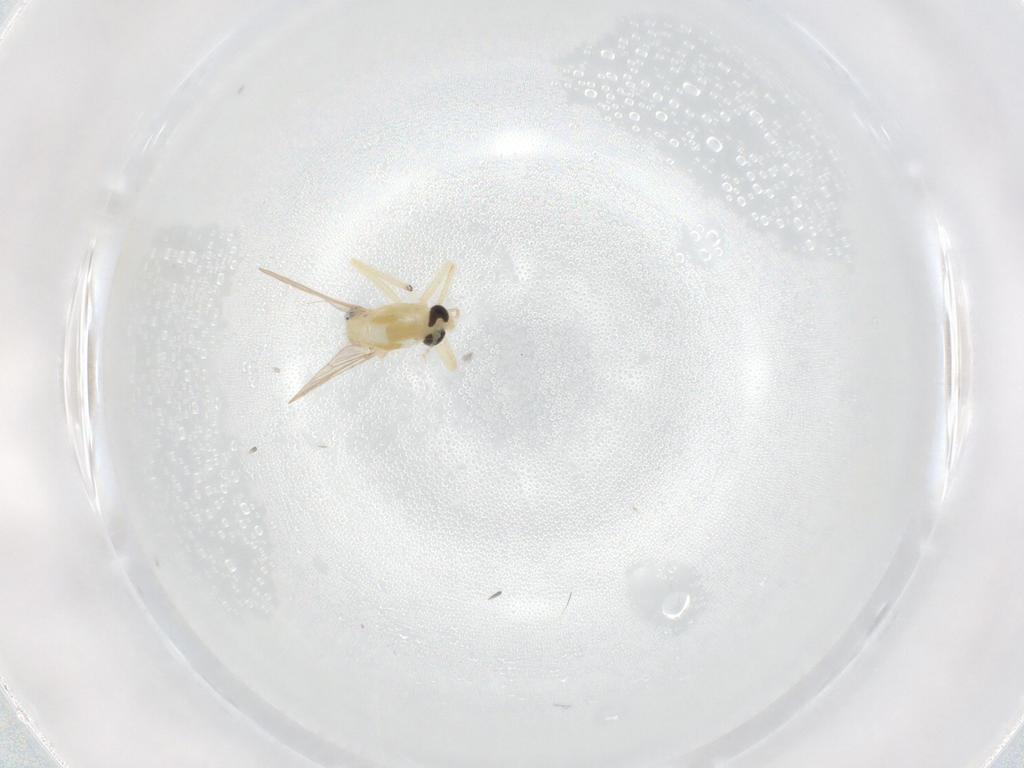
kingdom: Animalia
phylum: Arthropoda
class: Insecta
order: Diptera
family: Chironomidae
